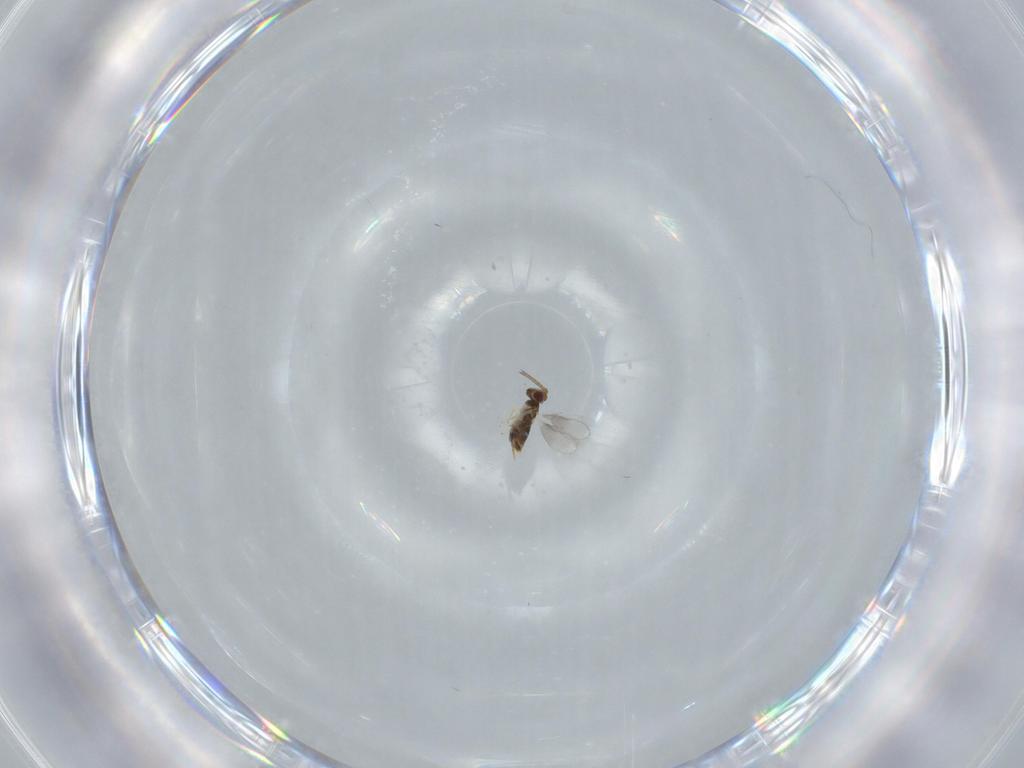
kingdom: Animalia
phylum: Arthropoda
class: Insecta
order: Hymenoptera
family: Aphelinidae
